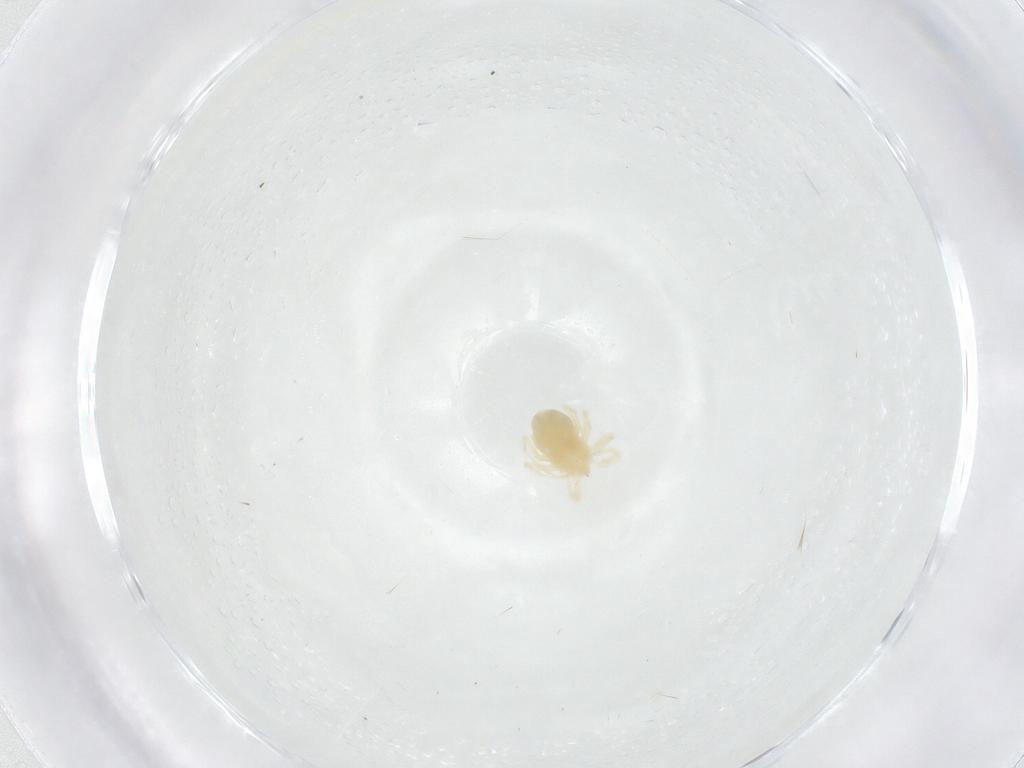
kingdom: Animalia
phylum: Arthropoda
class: Arachnida
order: Trombidiformes
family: Anystidae
